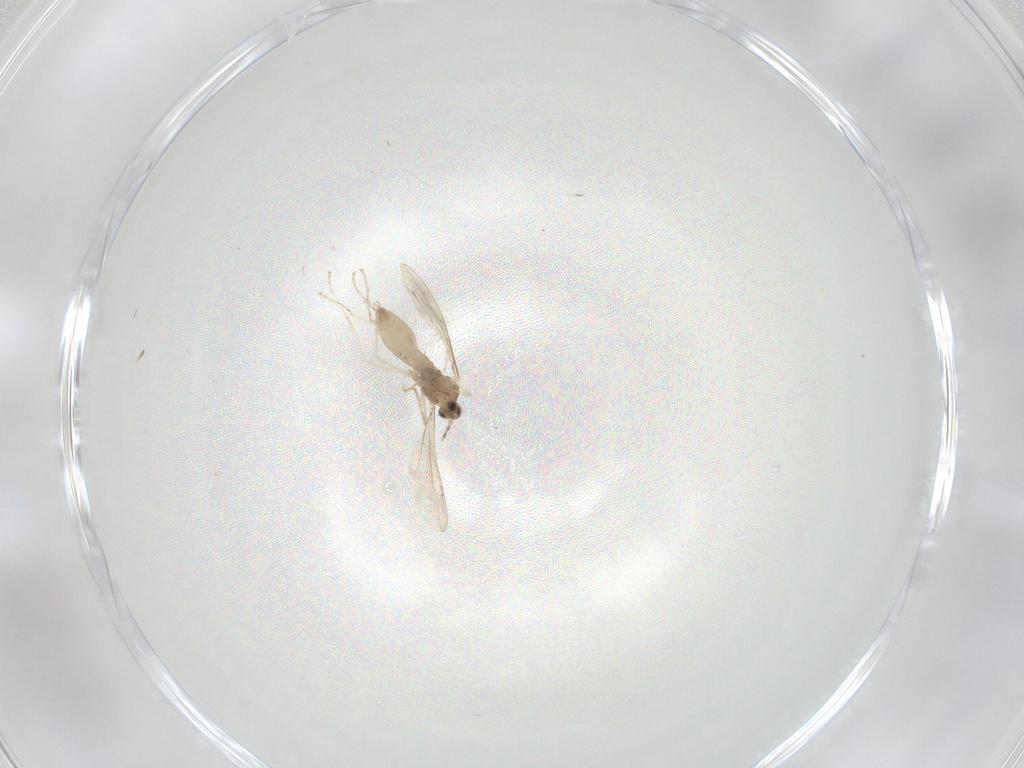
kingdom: Animalia
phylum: Arthropoda
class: Insecta
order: Diptera
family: Cecidomyiidae
